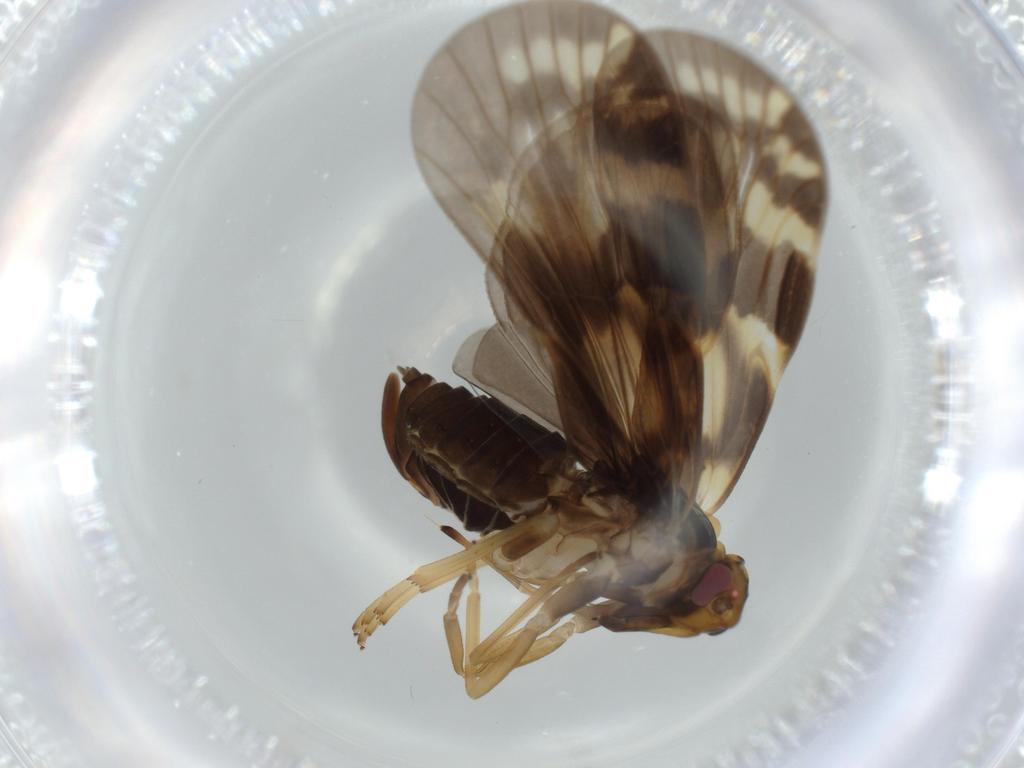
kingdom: Animalia
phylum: Arthropoda
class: Insecta
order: Hemiptera
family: Cixiidae
